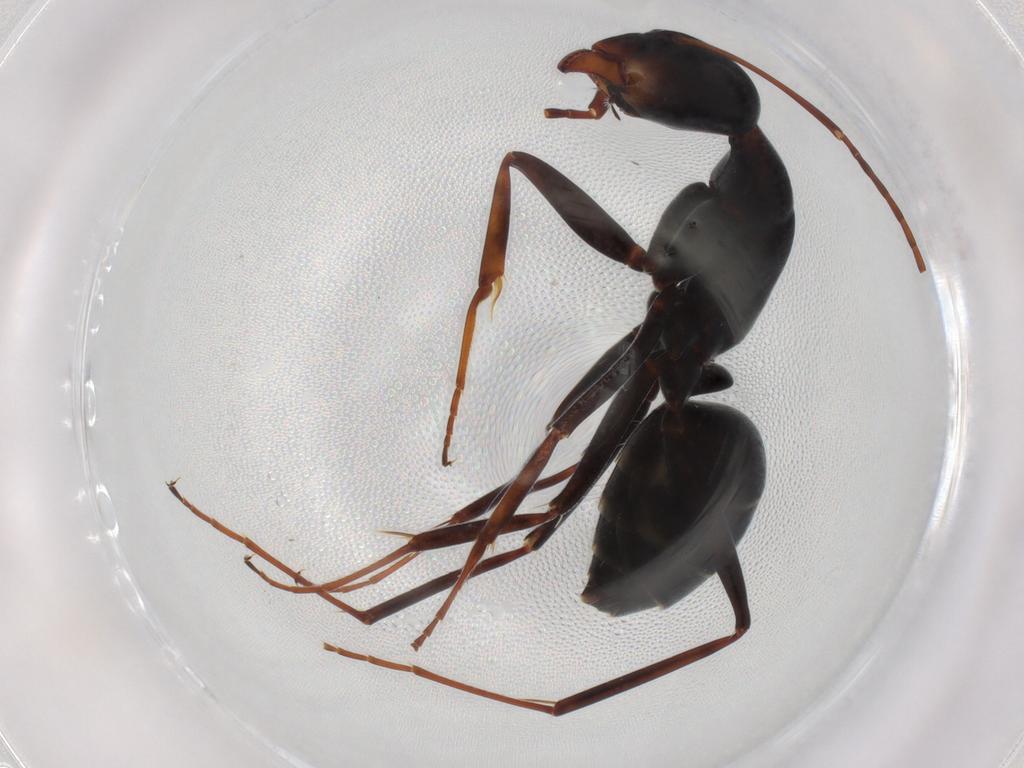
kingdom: Animalia
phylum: Arthropoda
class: Insecta
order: Hymenoptera
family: Formicidae
